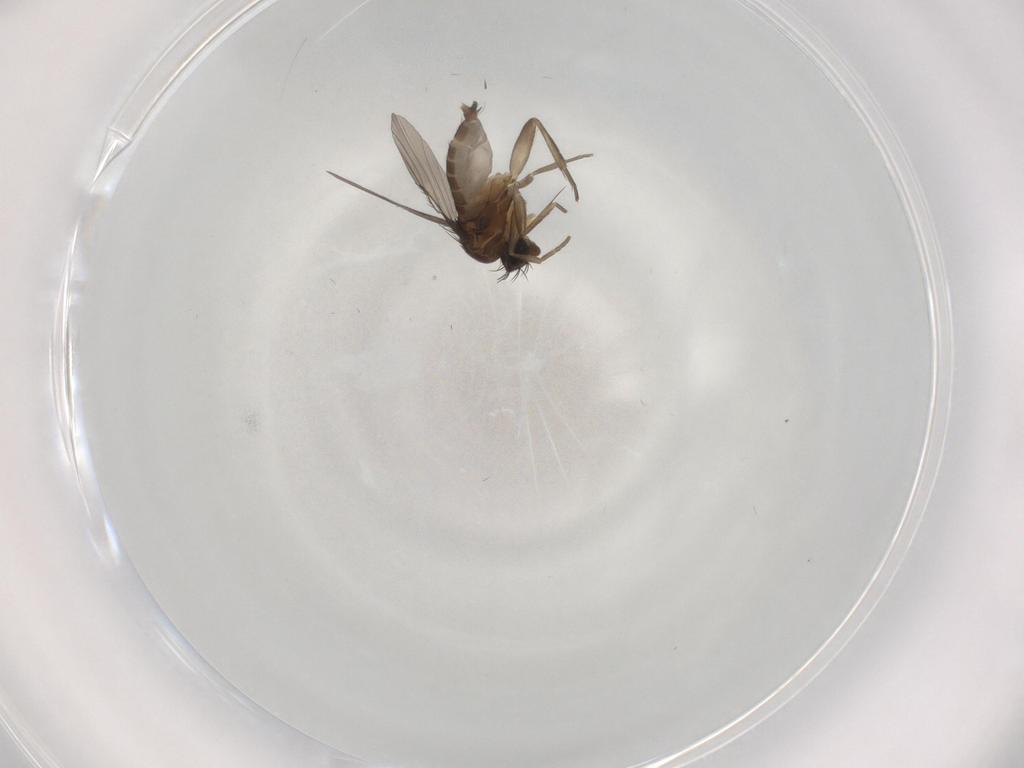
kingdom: Animalia
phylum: Arthropoda
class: Insecta
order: Diptera
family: Phoridae
